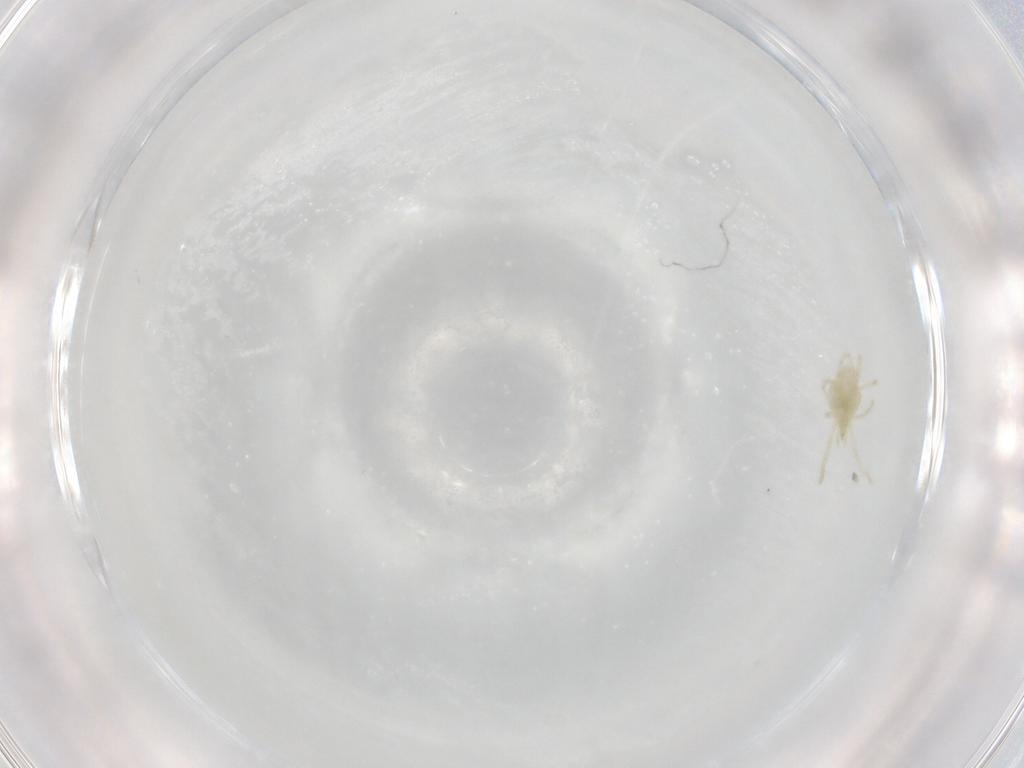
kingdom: Animalia
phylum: Arthropoda
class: Arachnida
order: Trombidiformes
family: Erythraeidae
